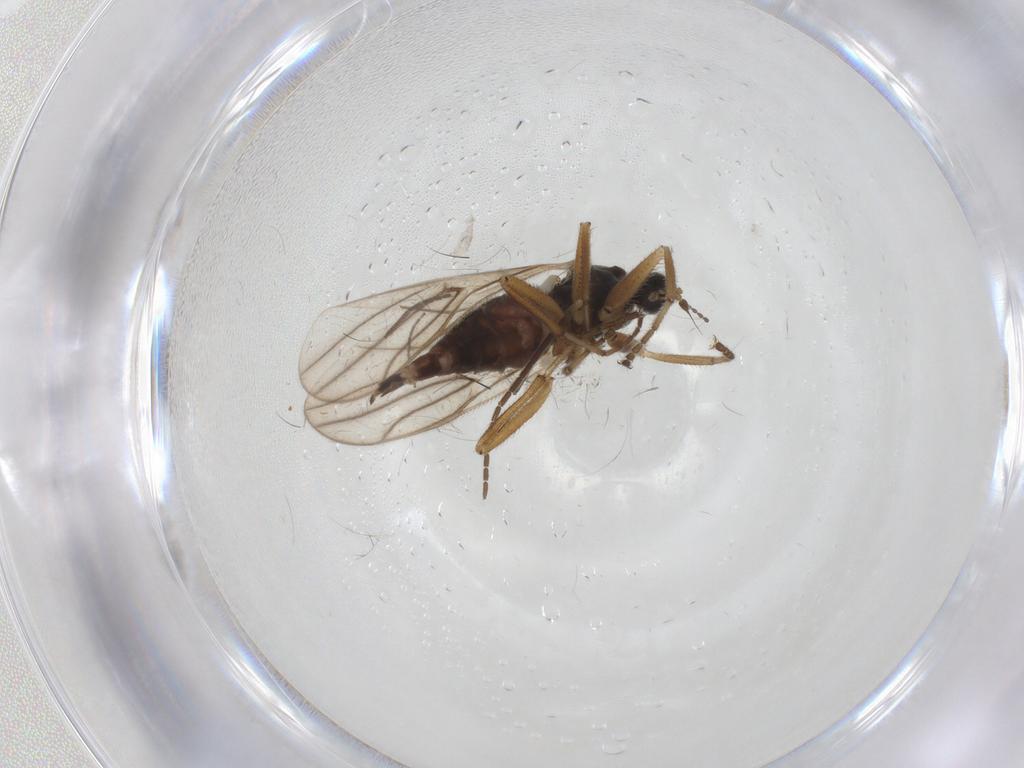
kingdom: Animalia
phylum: Arthropoda
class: Insecta
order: Diptera
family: Hybotidae
